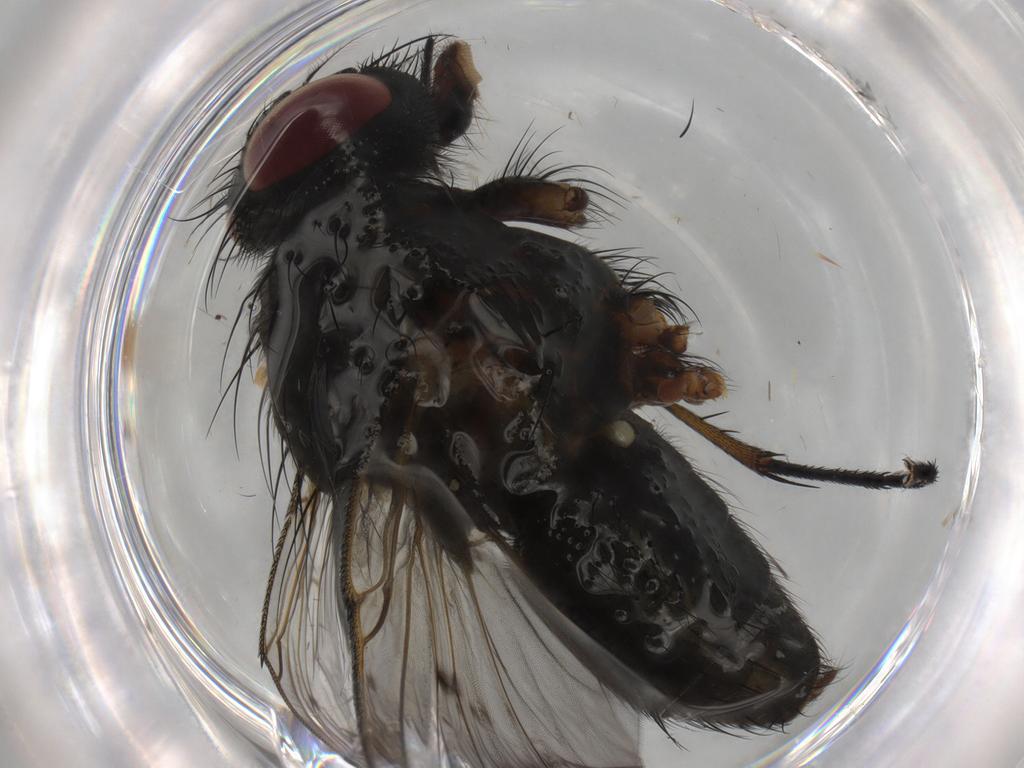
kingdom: Animalia
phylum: Arthropoda
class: Insecta
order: Diptera
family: Muscidae
